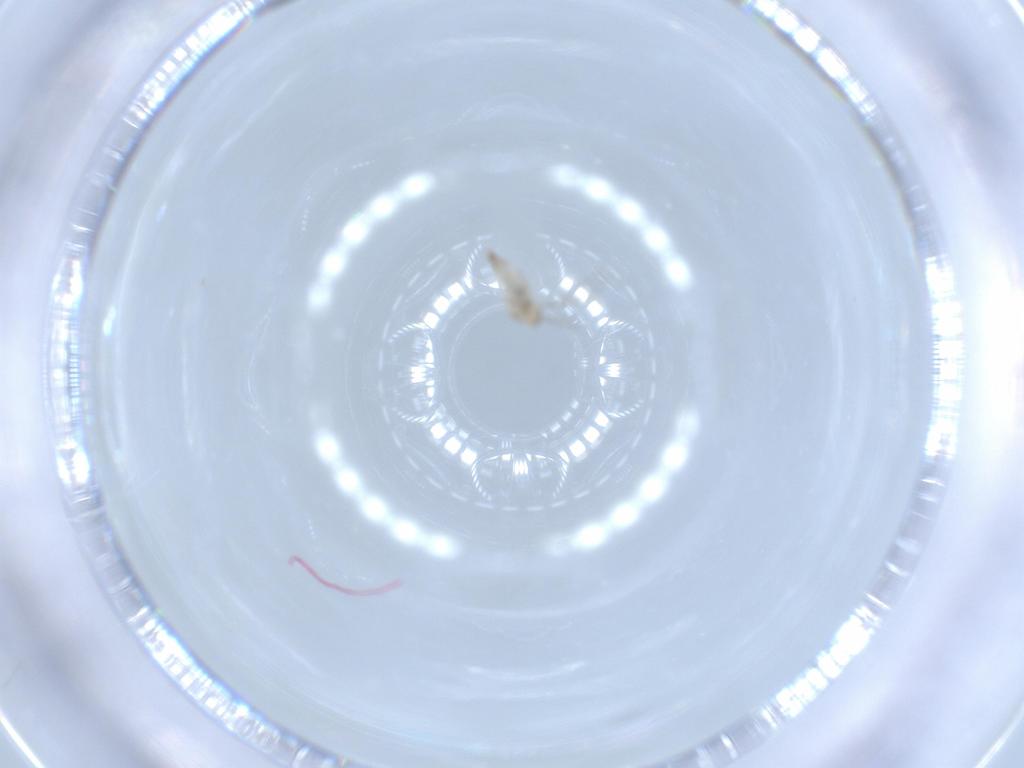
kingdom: Animalia
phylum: Arthropoda
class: Insecta
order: Diptera
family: Cecidomyiidae
